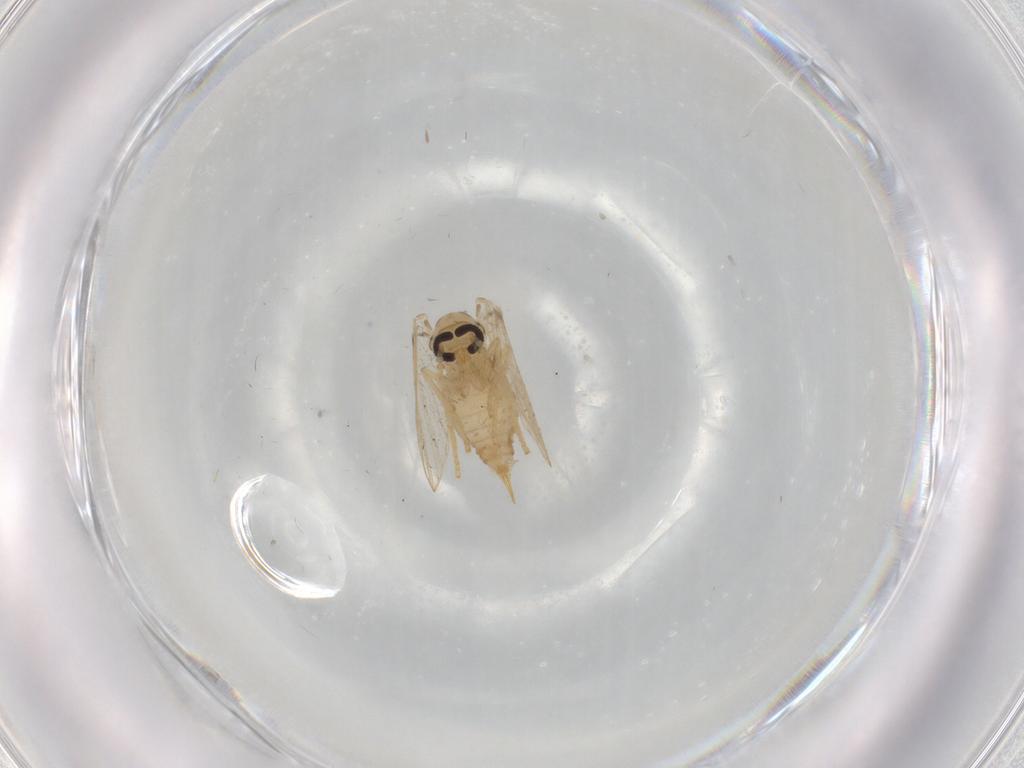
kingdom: Animalia
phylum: Arthropoda
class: Insecta
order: Diptera
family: Psychodidae
